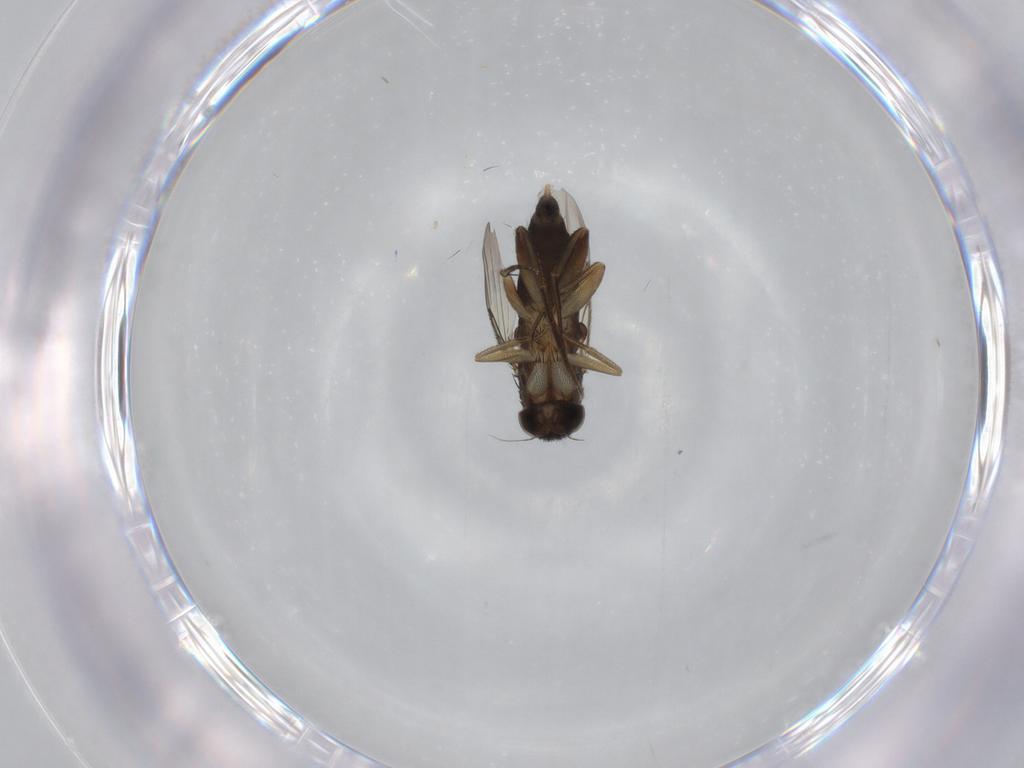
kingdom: Animalia
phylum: Arthropoda
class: Insecta
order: Diptera
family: Phoridae
